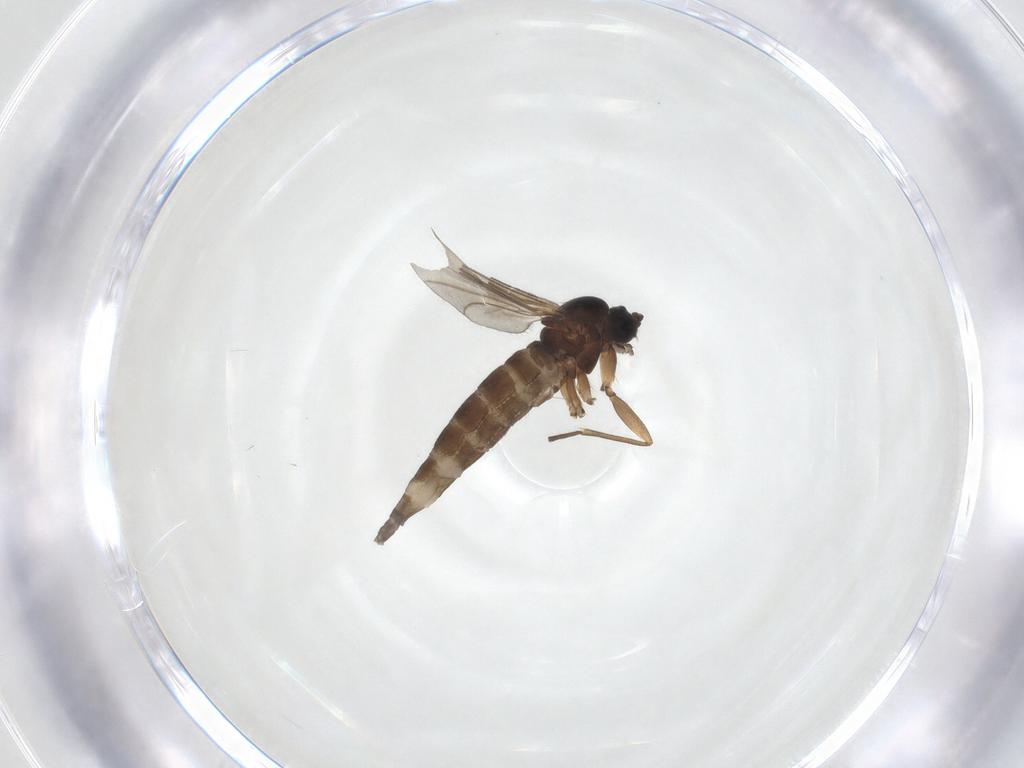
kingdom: Animalia
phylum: Arthropoda
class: Insecta
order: Diptera
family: Sciaridae
